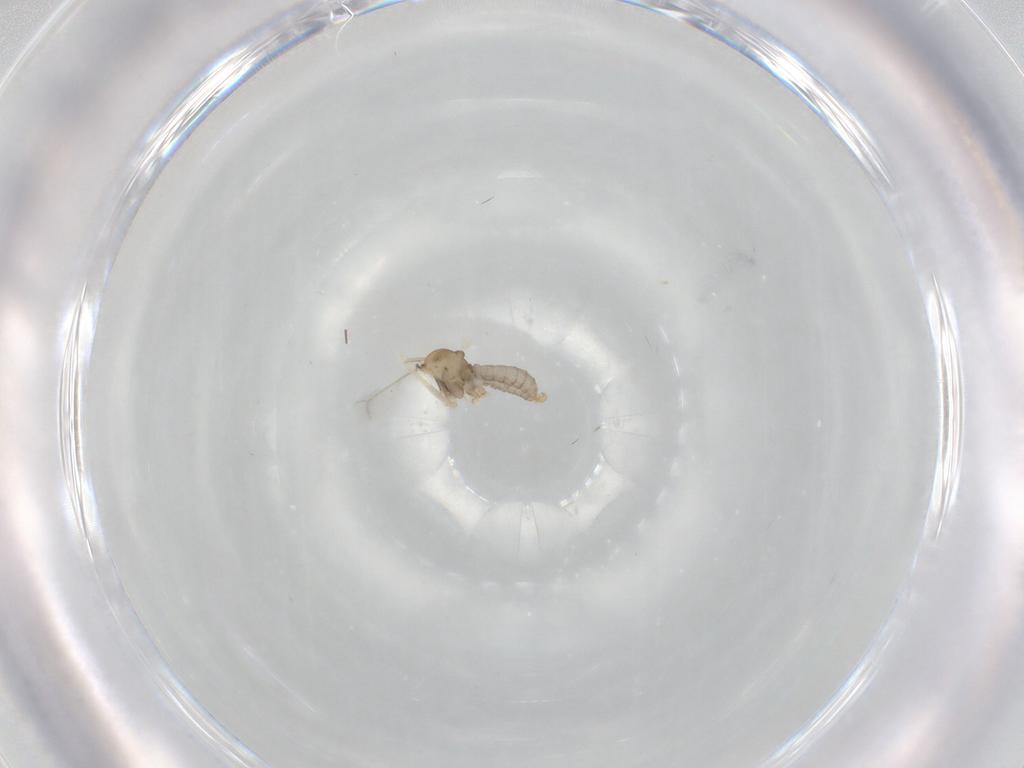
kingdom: Animalia
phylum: Arthropoda
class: Insecta
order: Diptera
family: Cecidomyiidae
